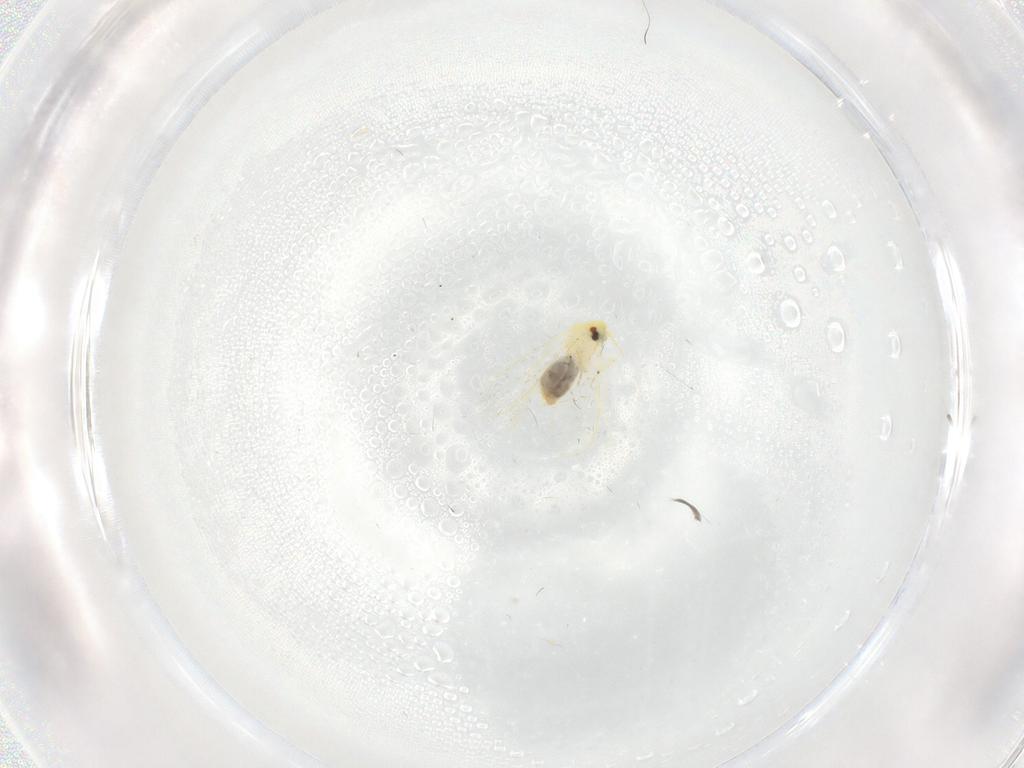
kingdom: Animalia
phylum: Arthropoda
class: Insecta
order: Hemiptera
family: Aleyrodidae
